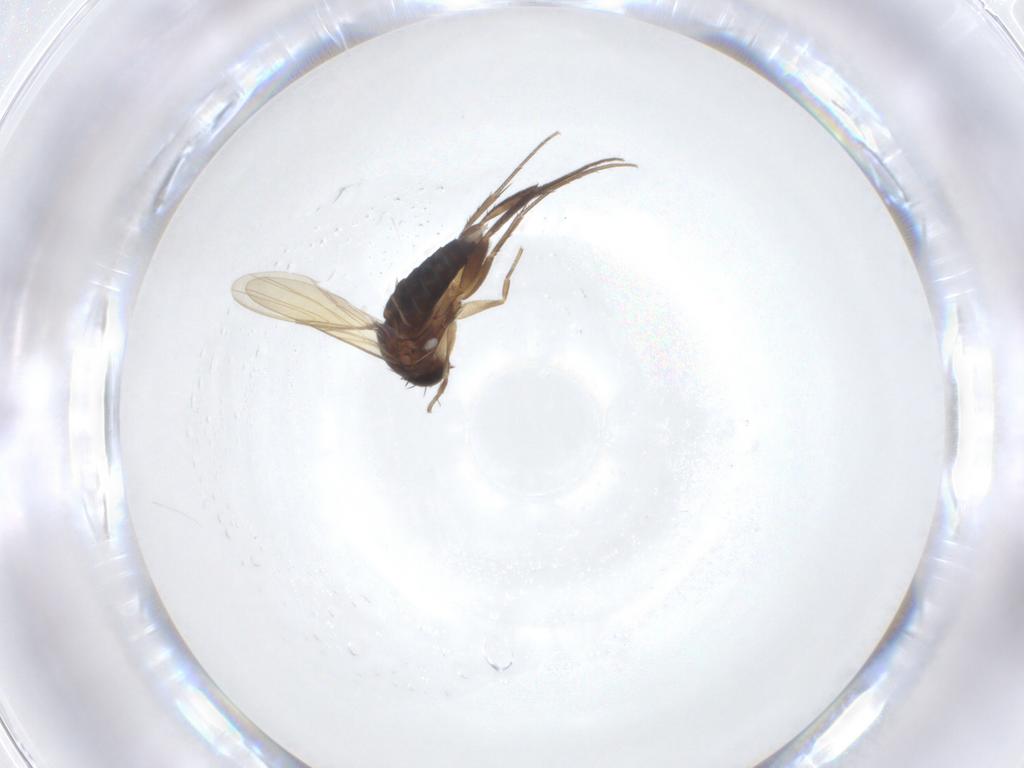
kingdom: Animalia
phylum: Arthropoda
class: Insecta
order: Diptera
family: Phoridae
